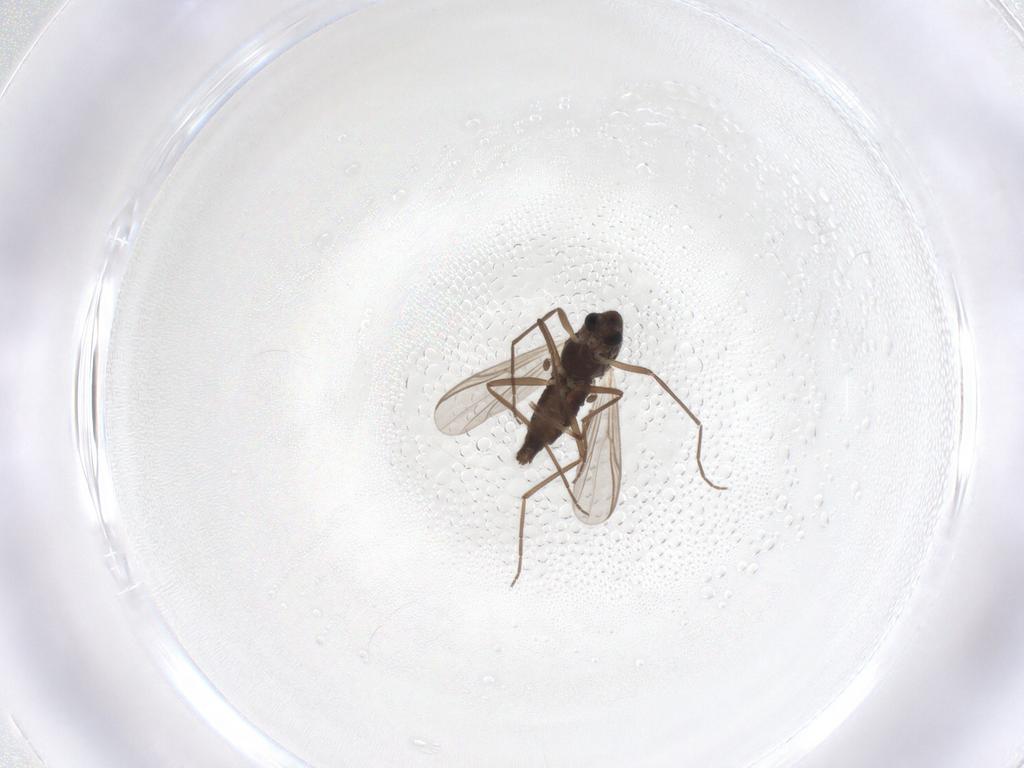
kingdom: Animalia
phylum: Arthropoda
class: Insecta
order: Diptera
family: Chironomidae
